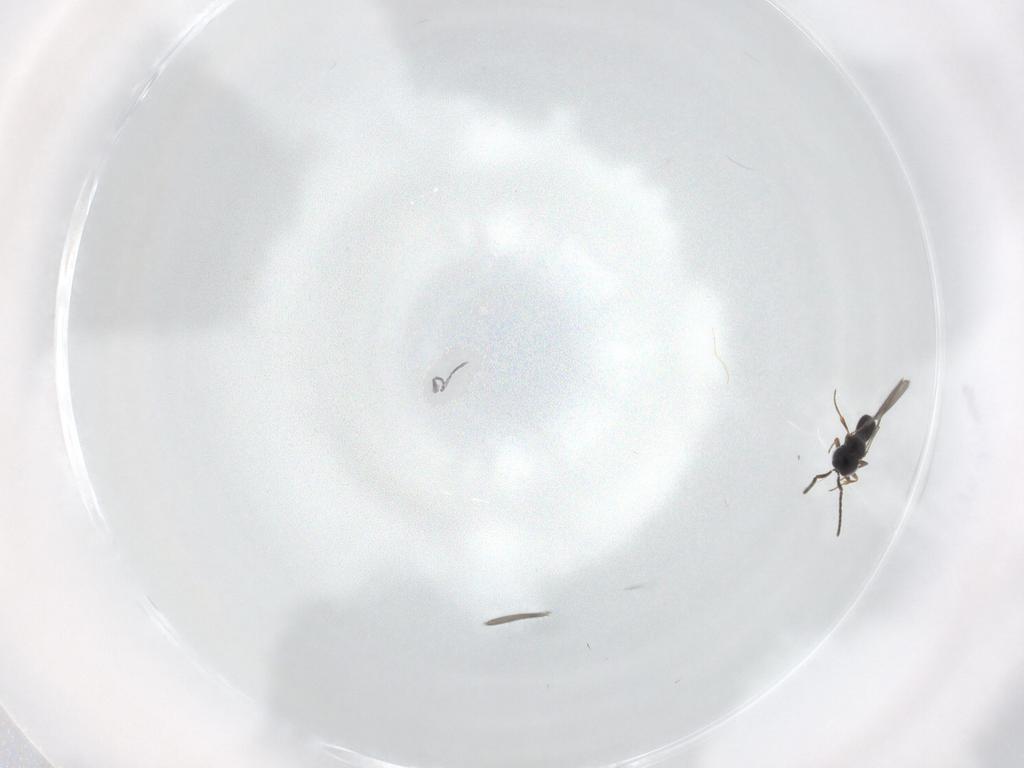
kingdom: Animalia
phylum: Arthropoda
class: Insecta
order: Hymenoptera
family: Scelionidae
